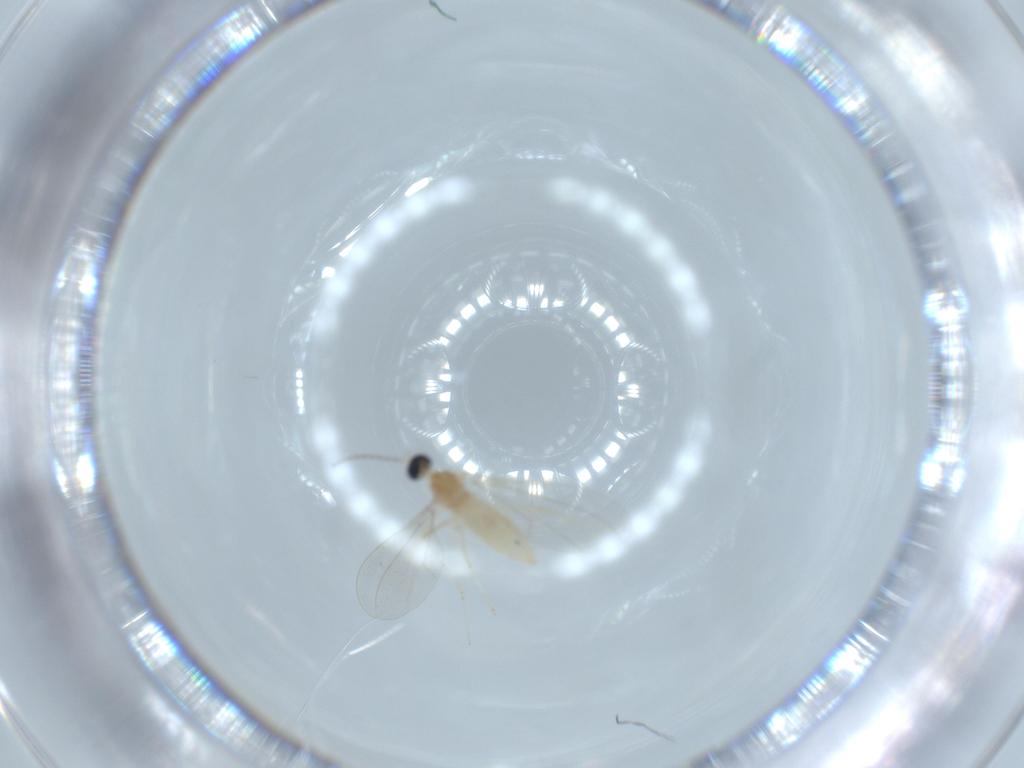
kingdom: Animalia
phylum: Arthropoda
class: Insecta
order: Diptera
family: Cecidomyiidae
